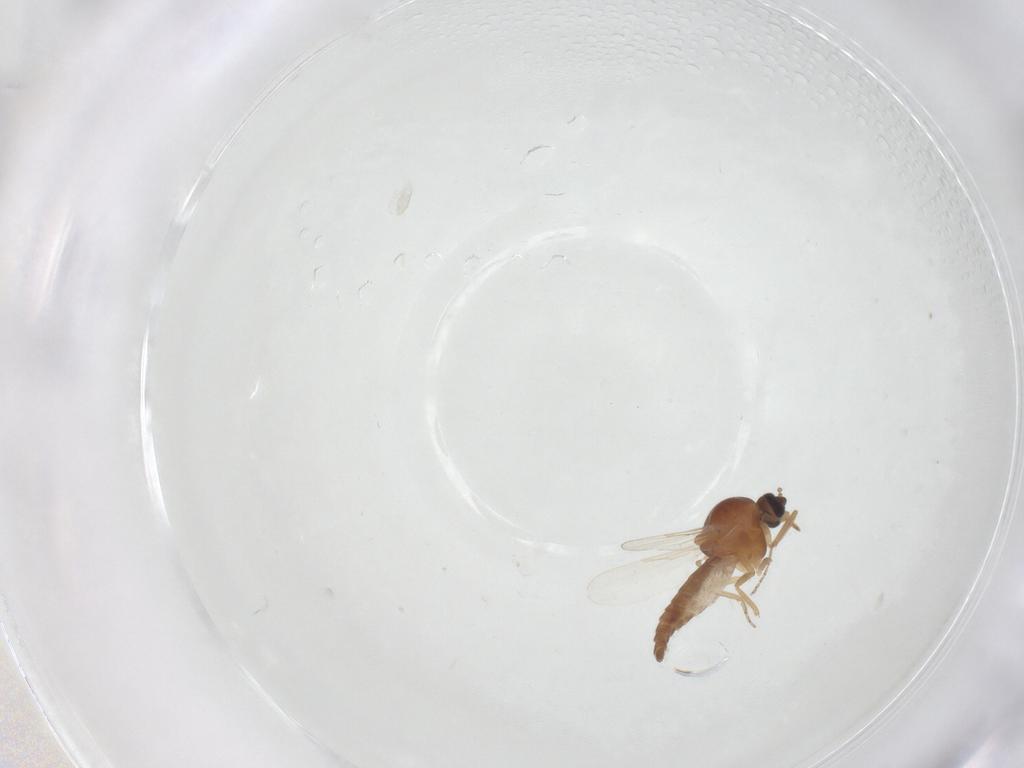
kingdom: Animalia
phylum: Arthropoda
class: Insecta
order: Diptera
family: Ceratopogonidae
